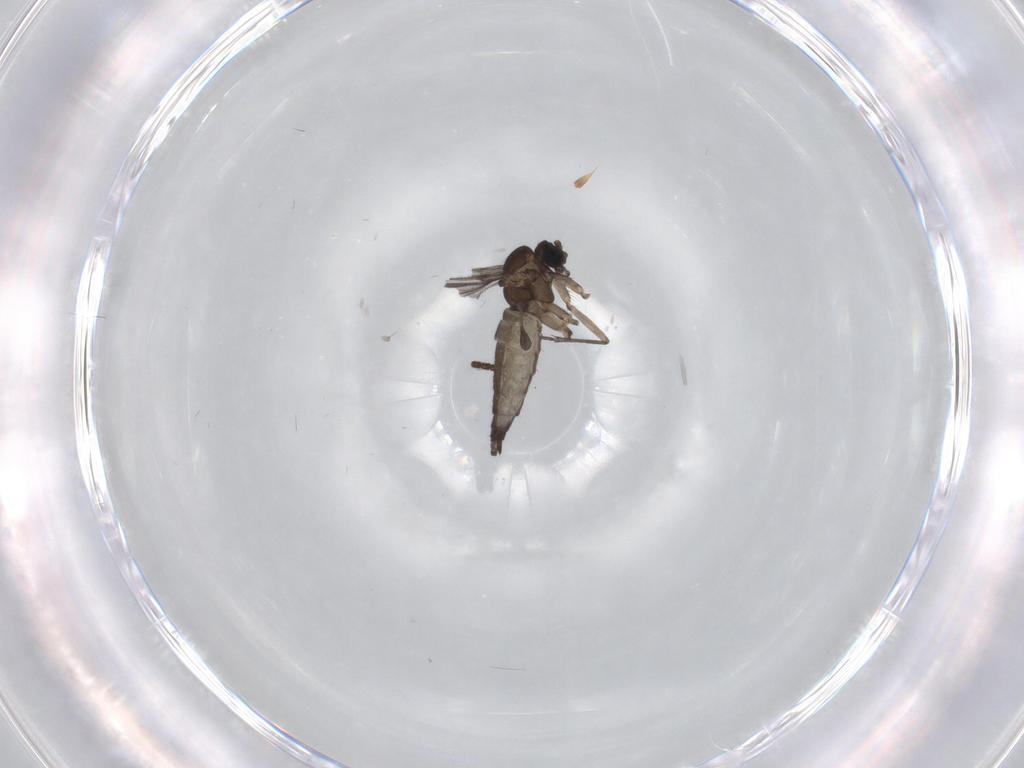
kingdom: Animalia
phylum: Arthropoda
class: Insecta
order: Diptera
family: Sciaridae
